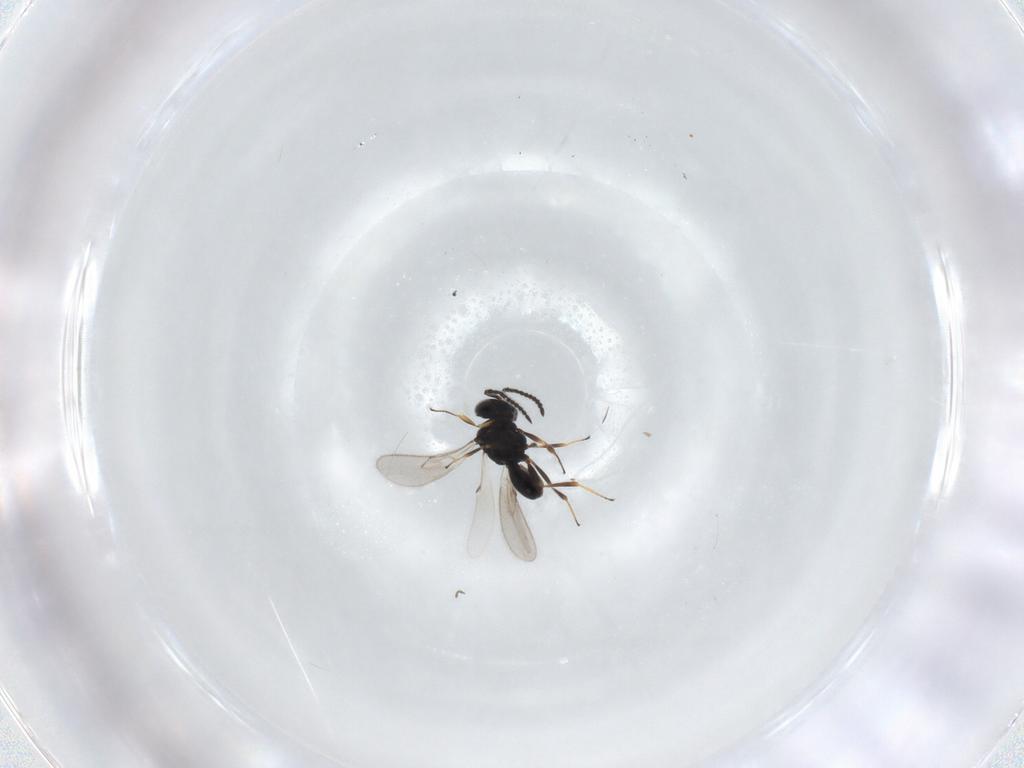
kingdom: Animalia
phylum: Arthropoda
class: Insecta
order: Hymenoptera
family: Scelionidae
